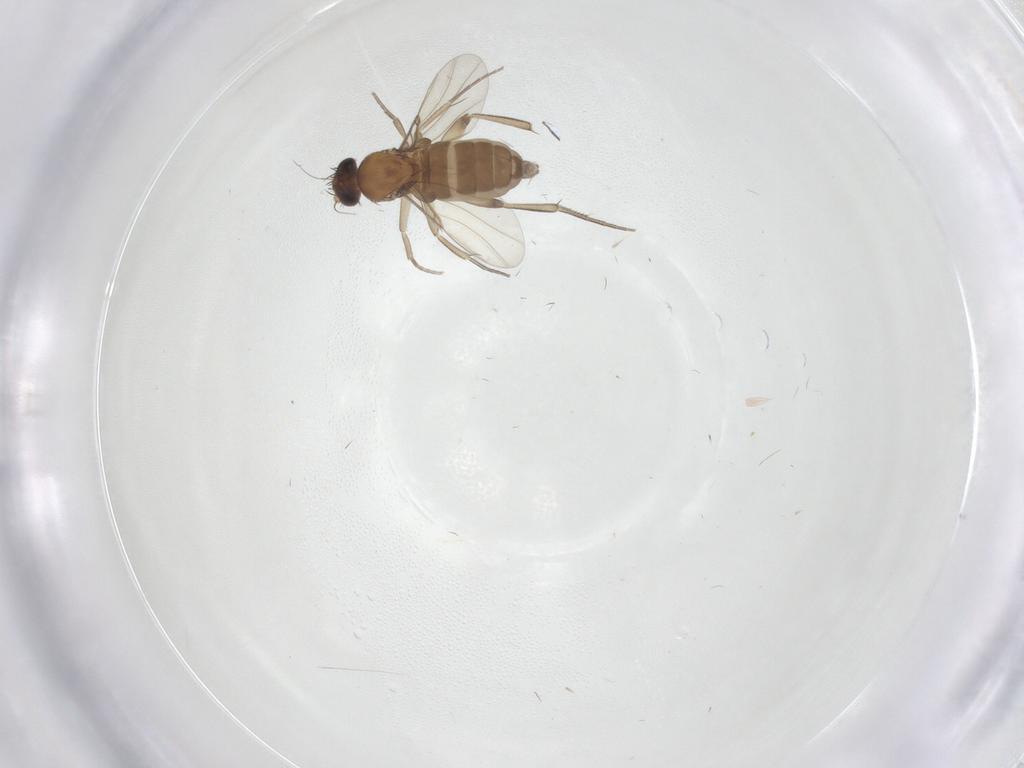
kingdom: Animalia
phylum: Arthropoda
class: Insecta
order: Diptera
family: Phoridae
